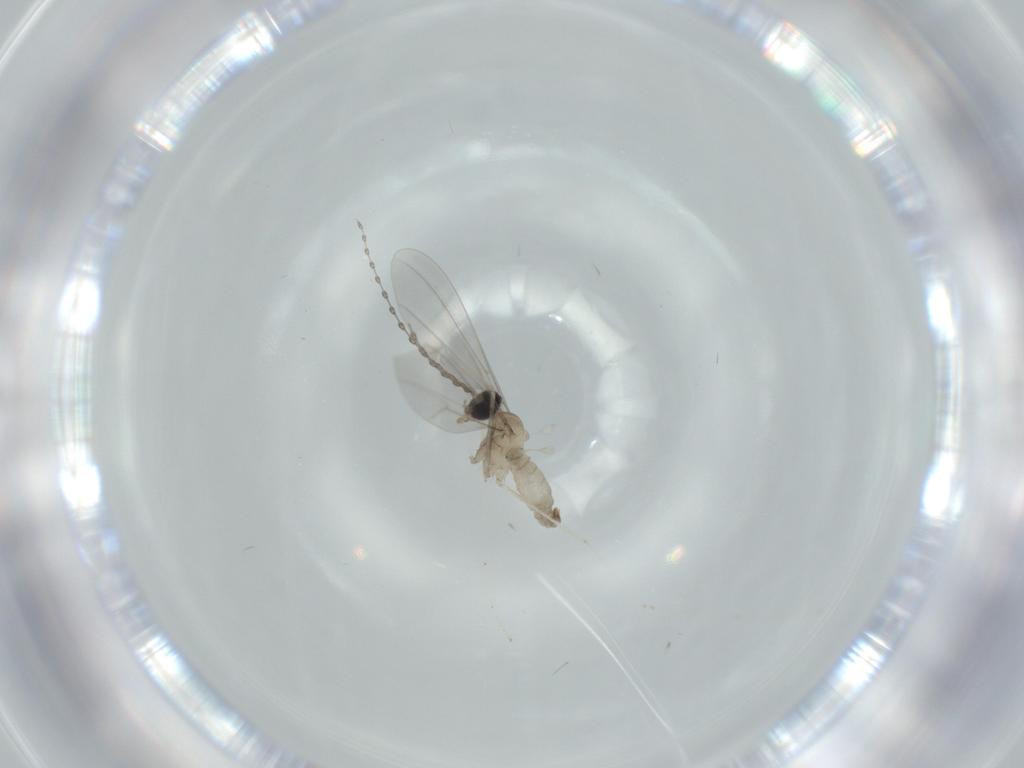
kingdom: Animalia
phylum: Arthropoda
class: Insecta
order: Diptera
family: Cecidomyiidae
